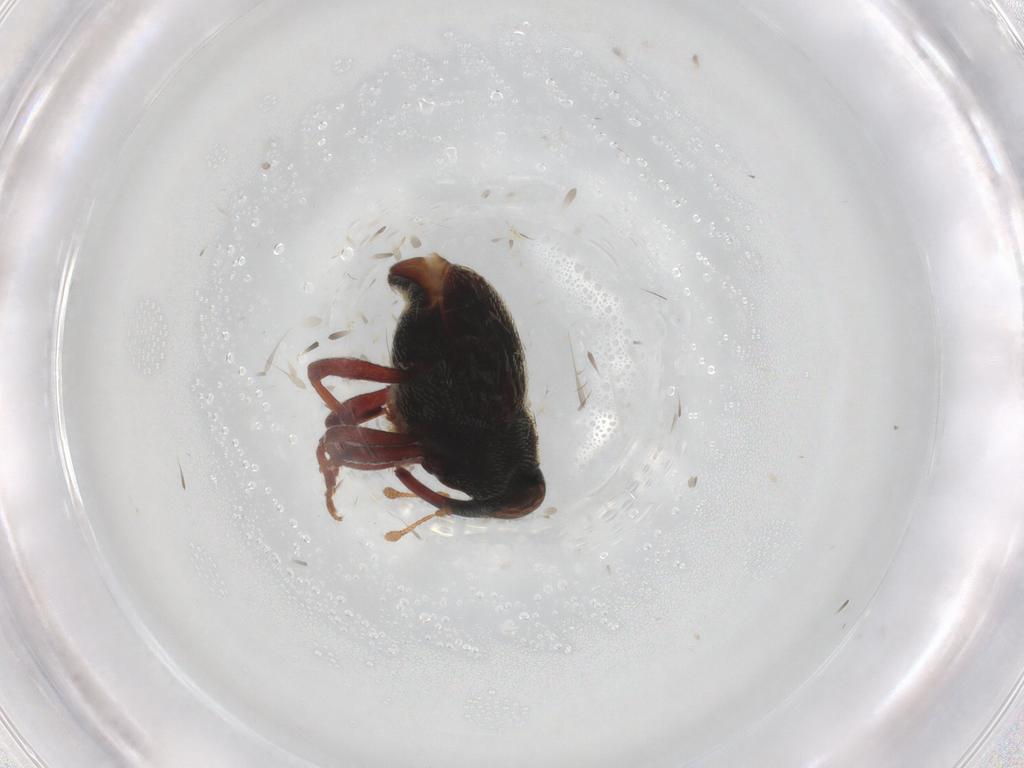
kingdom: Animalia
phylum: Arthropoda
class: Insecta
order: Coleoptera
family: Curculionidae
